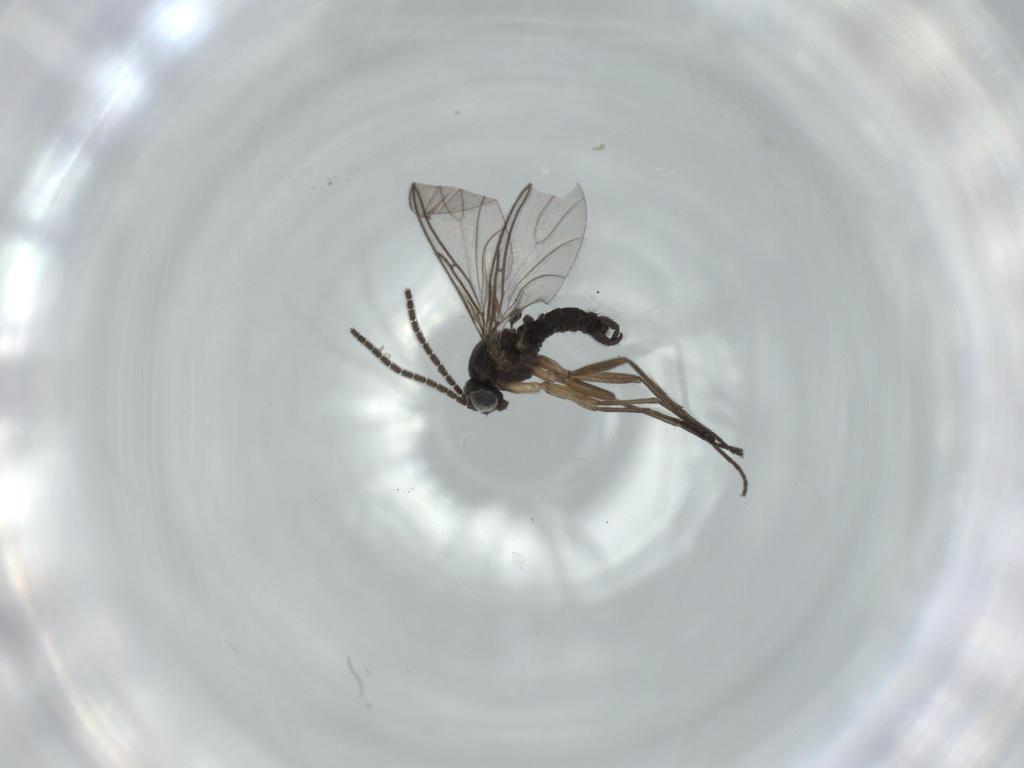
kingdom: Animalia
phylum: Arthropoda
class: Insecta
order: Diptera
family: Sciaridae
